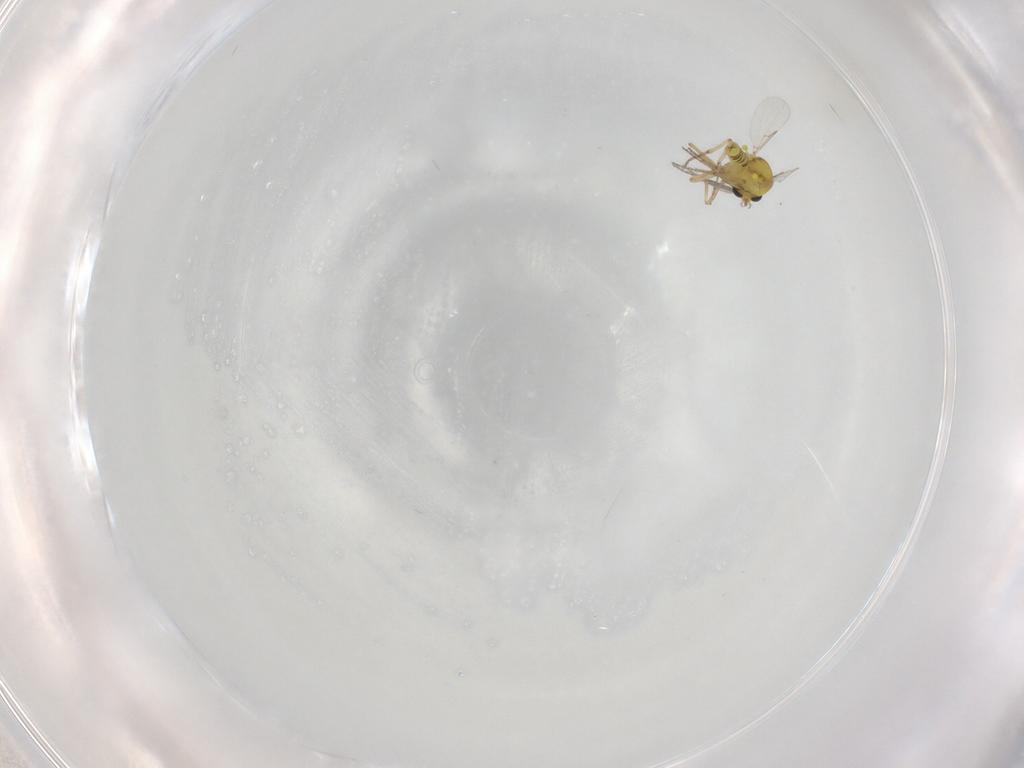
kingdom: Animalia
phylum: Arthropoda
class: Insecta
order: Diptera
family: Ceratopogonidae
